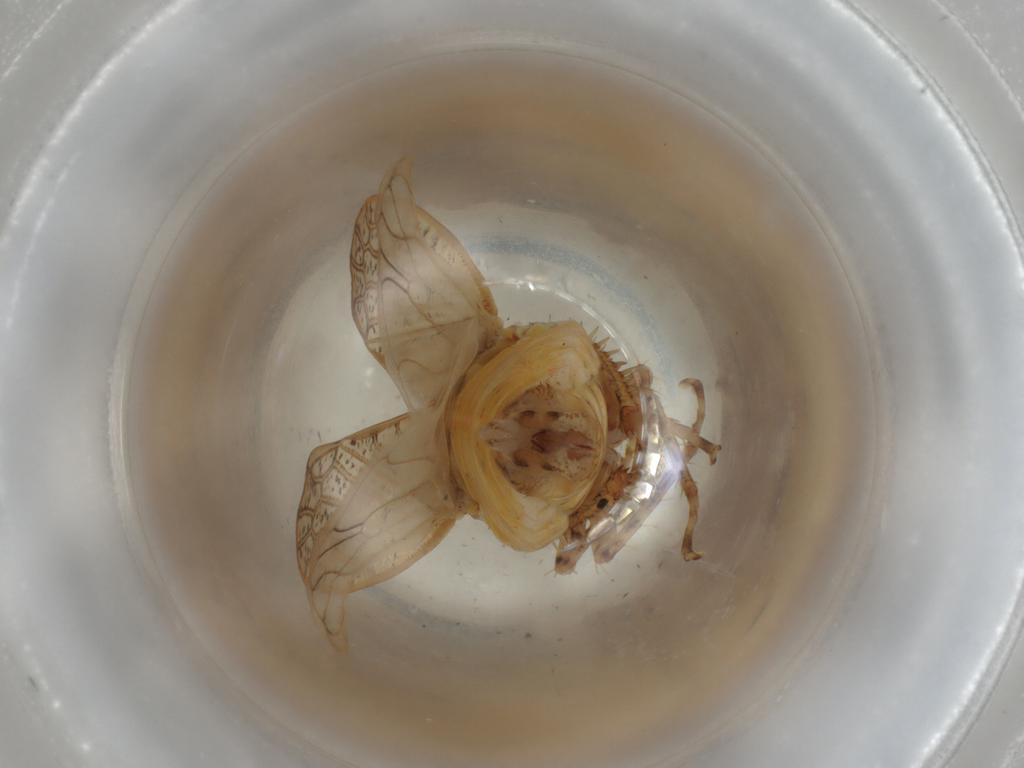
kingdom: Animalia
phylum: Arthropoda
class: Insecta
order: Hemiptera
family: Cicadellidae
